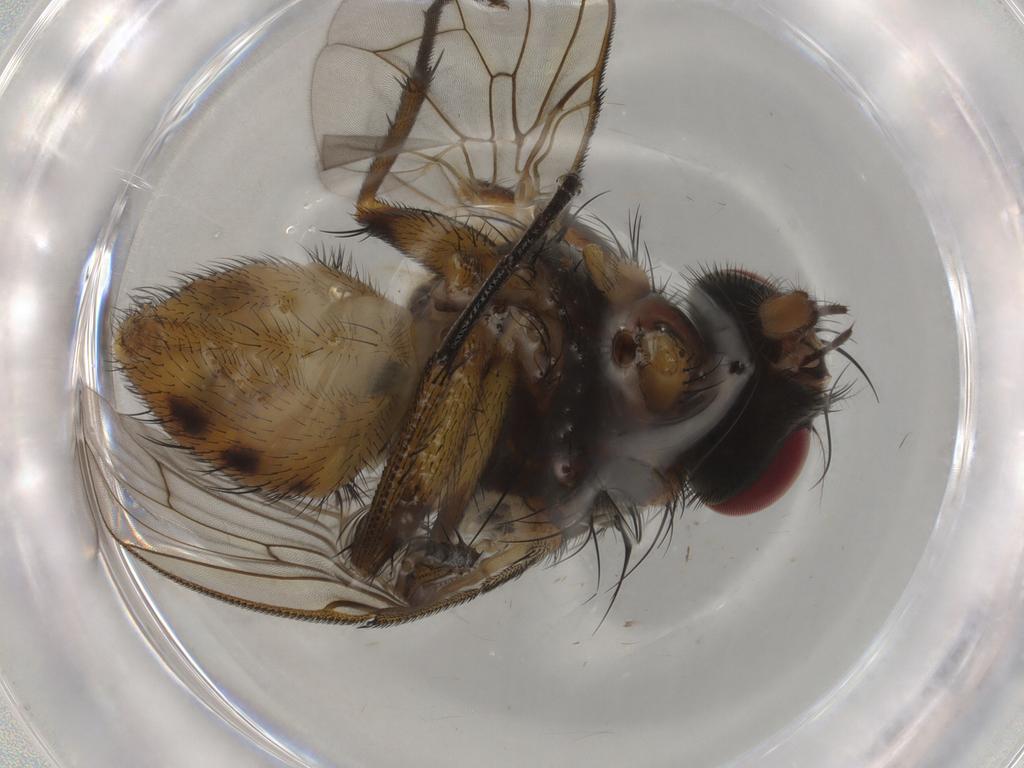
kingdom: Animalia
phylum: Arthropoda
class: Insecta
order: Diptera
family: Muscidae
